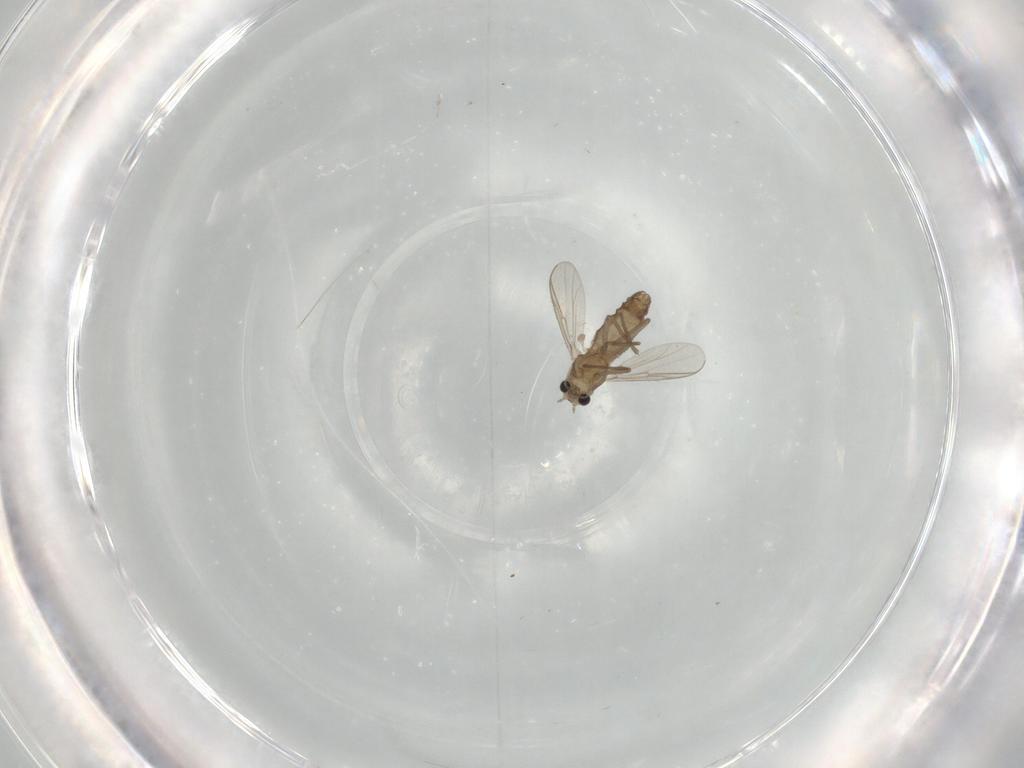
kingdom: Animalia
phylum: Arthropoda
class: Insecta
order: Diptera
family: Chironomidae
